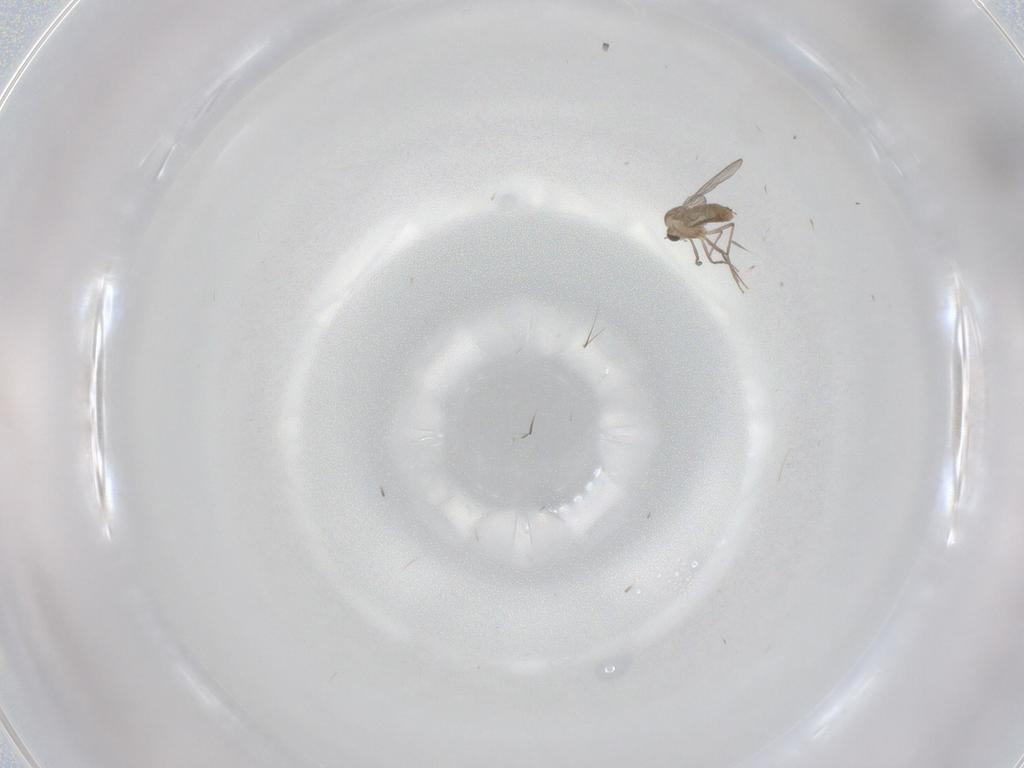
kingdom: Animalia
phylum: Arthropoda
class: Insecta
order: Diptera
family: Chironomidae
